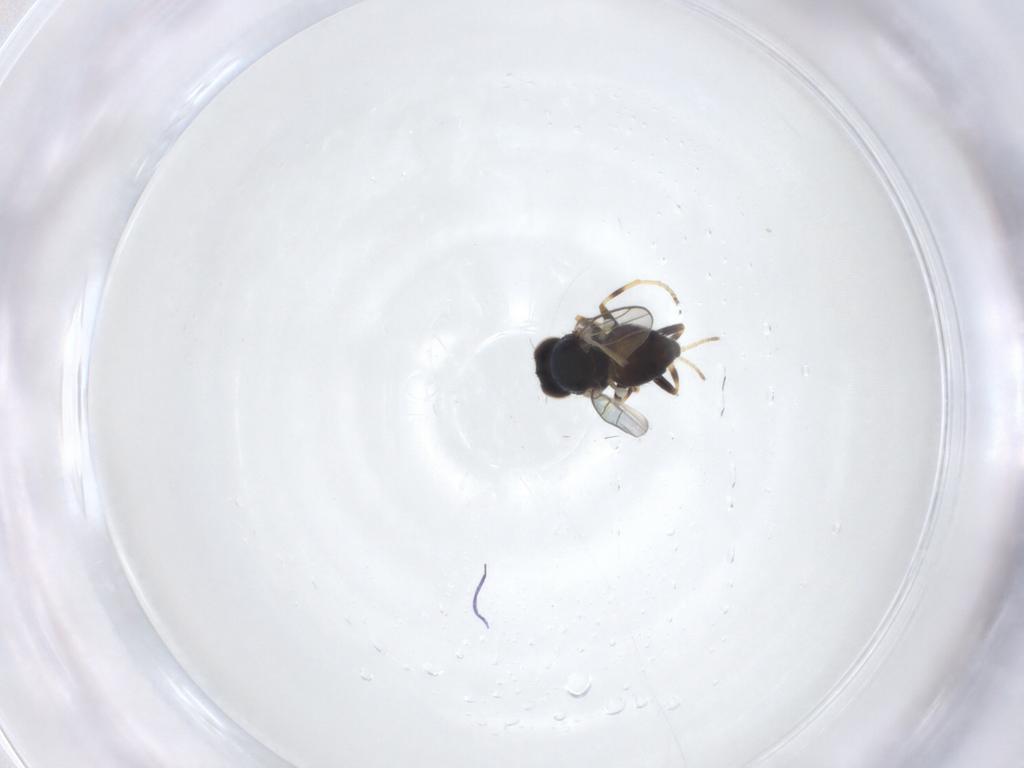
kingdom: Animalia
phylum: Arthropoda
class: Insecta
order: Diptera
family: Chloropidae
